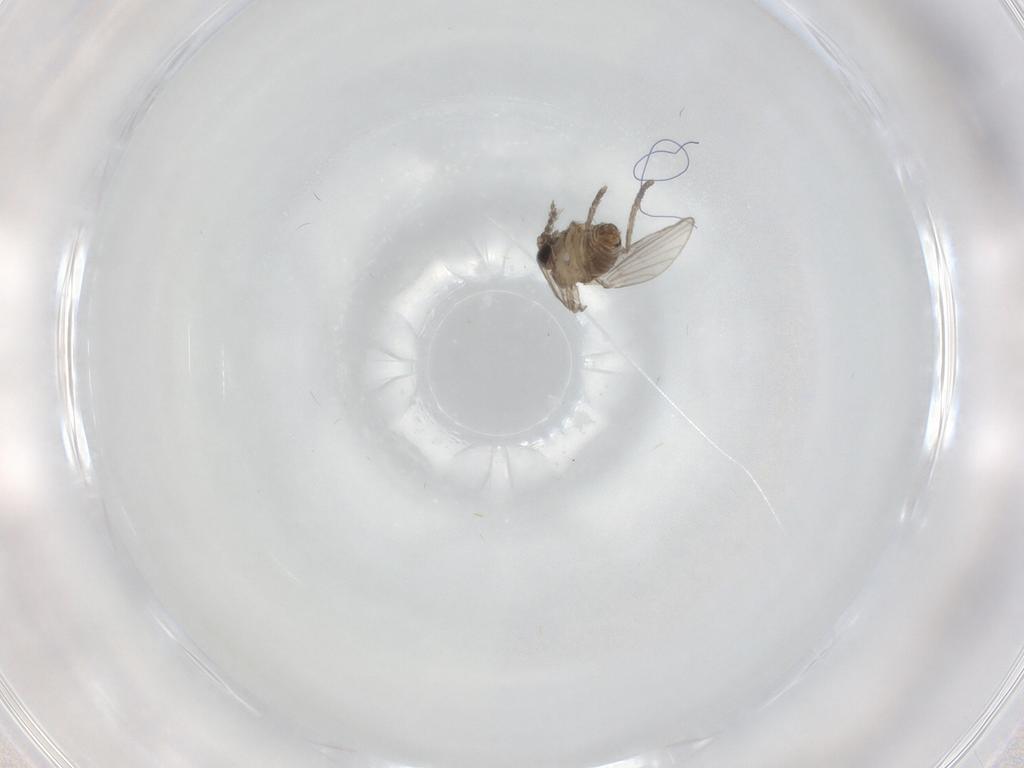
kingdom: Animalia
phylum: Arthropoda
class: Insecta
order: Diptera
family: Psychodidae
